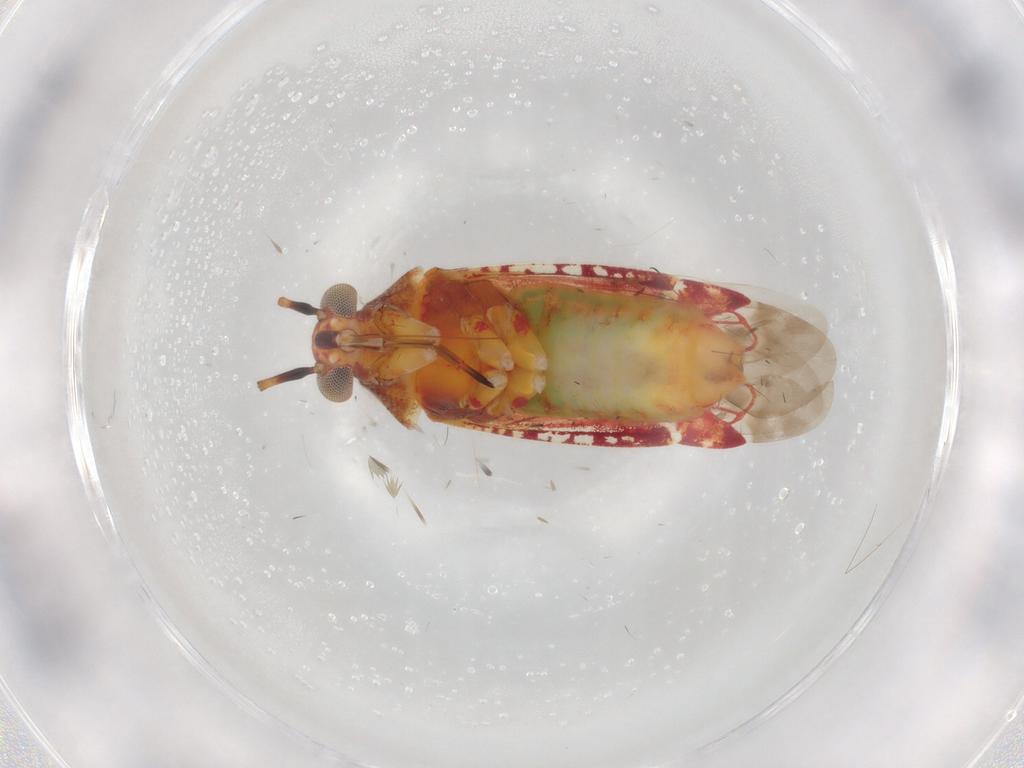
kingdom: Animalia
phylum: Arthropoda
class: Insecta
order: Hemiptera
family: Miridae
